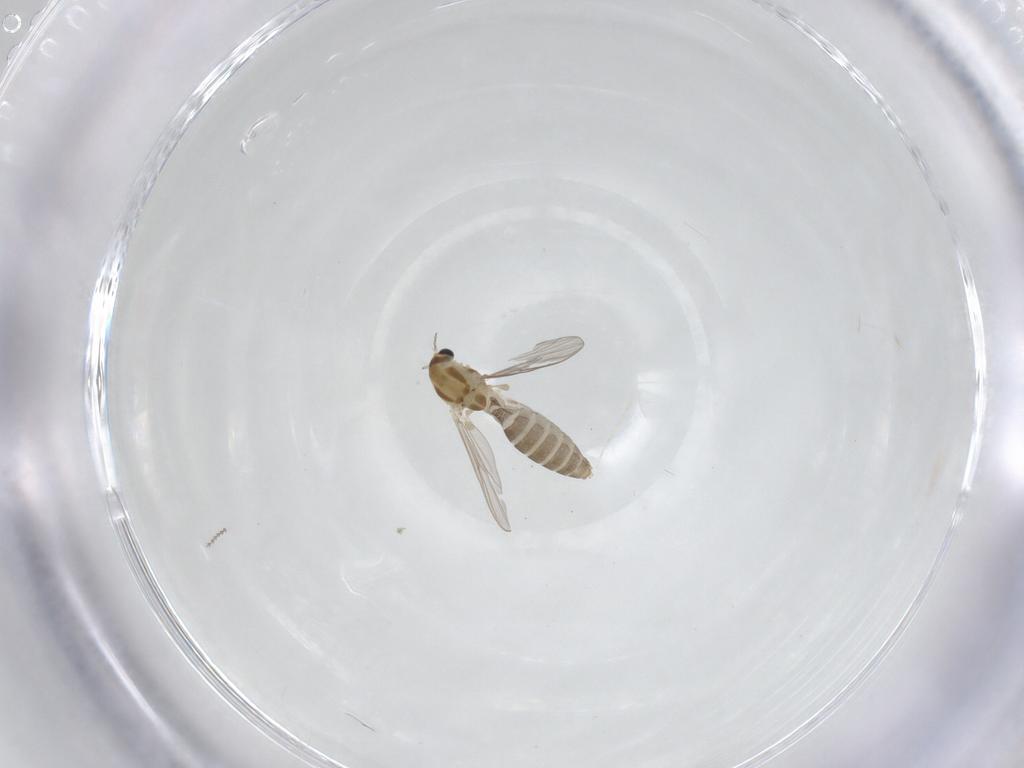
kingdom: Animalia
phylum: Arthropoda
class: Insecta
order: Diptera
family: Chironomidae
